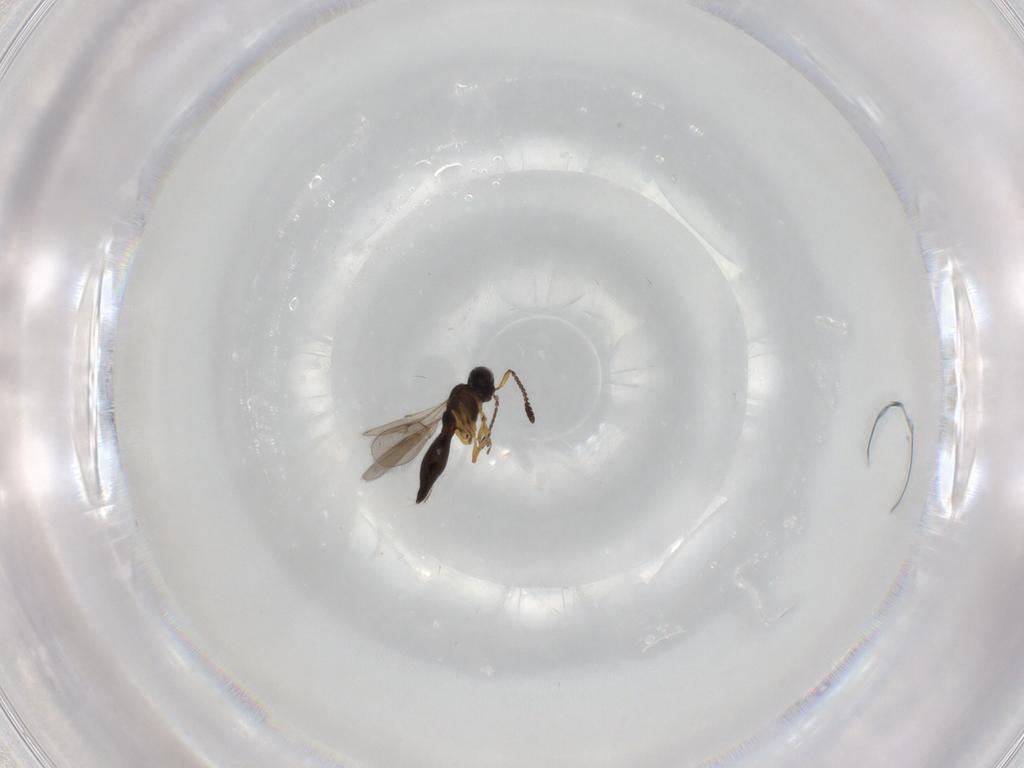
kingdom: Animalia
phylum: Arthropoda
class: Insecta
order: Hymenoptera
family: Scelionidae
